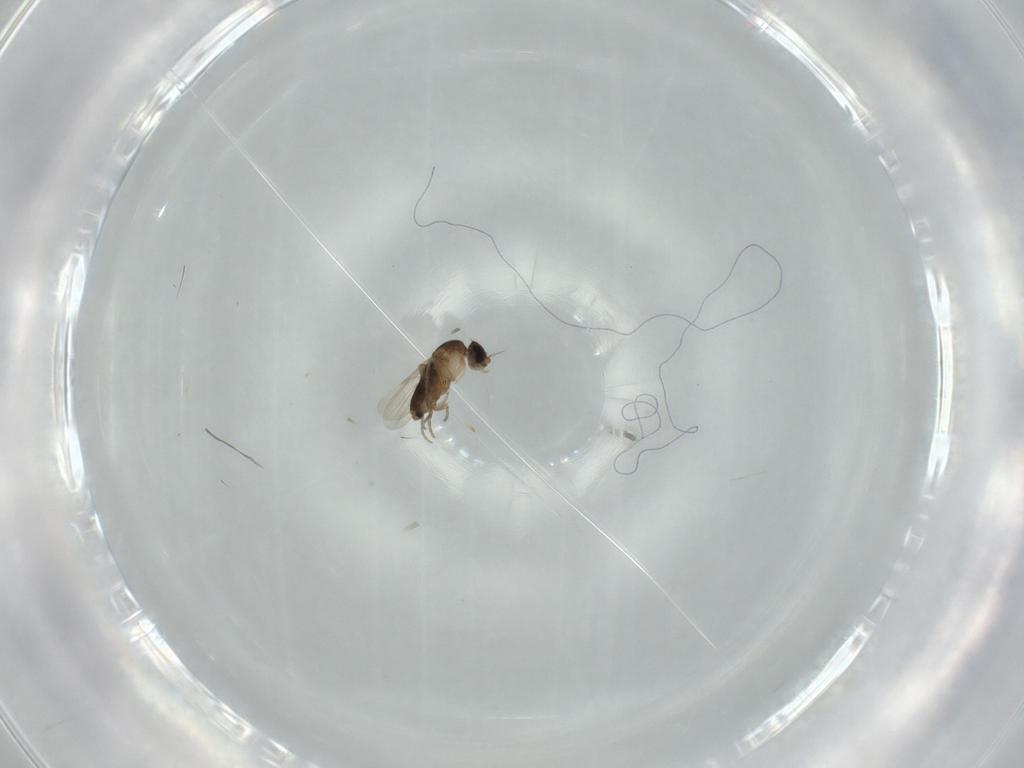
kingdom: Animalia
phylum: Arthropoda
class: Insecta
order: Diptera
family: Phoridae
